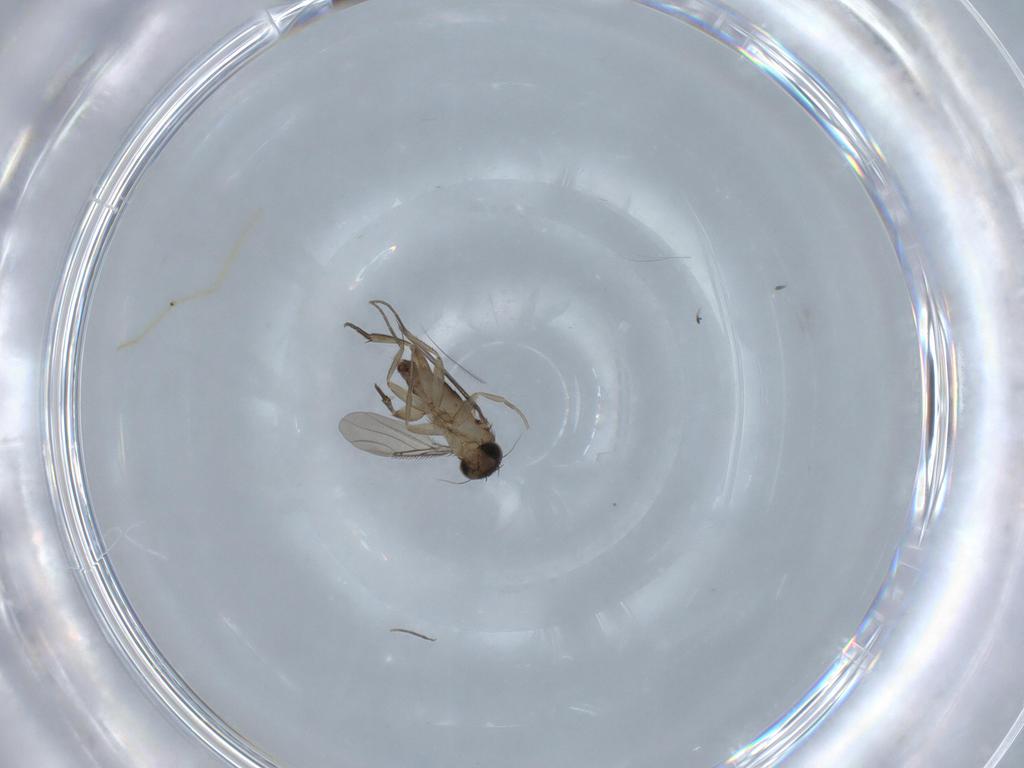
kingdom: Animalia
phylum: Arthropoda
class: Insecta
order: Diptera
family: Phoridae
